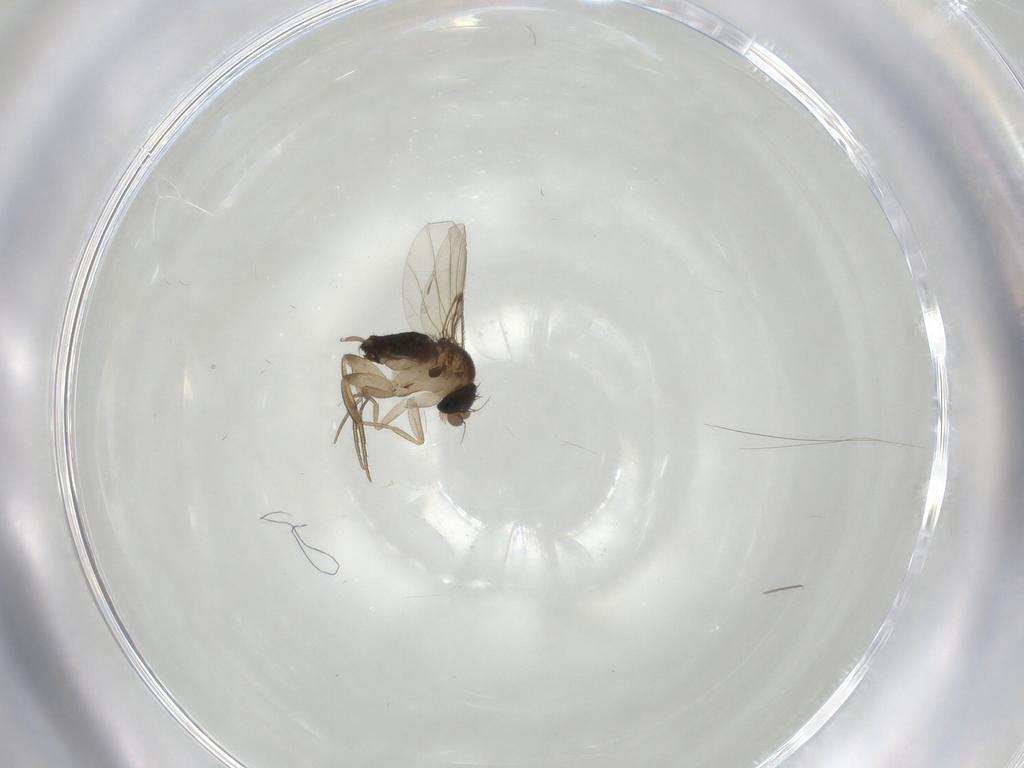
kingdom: Animalia
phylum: Arthropoda
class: Insecta
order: Diptera
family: Phoridae
